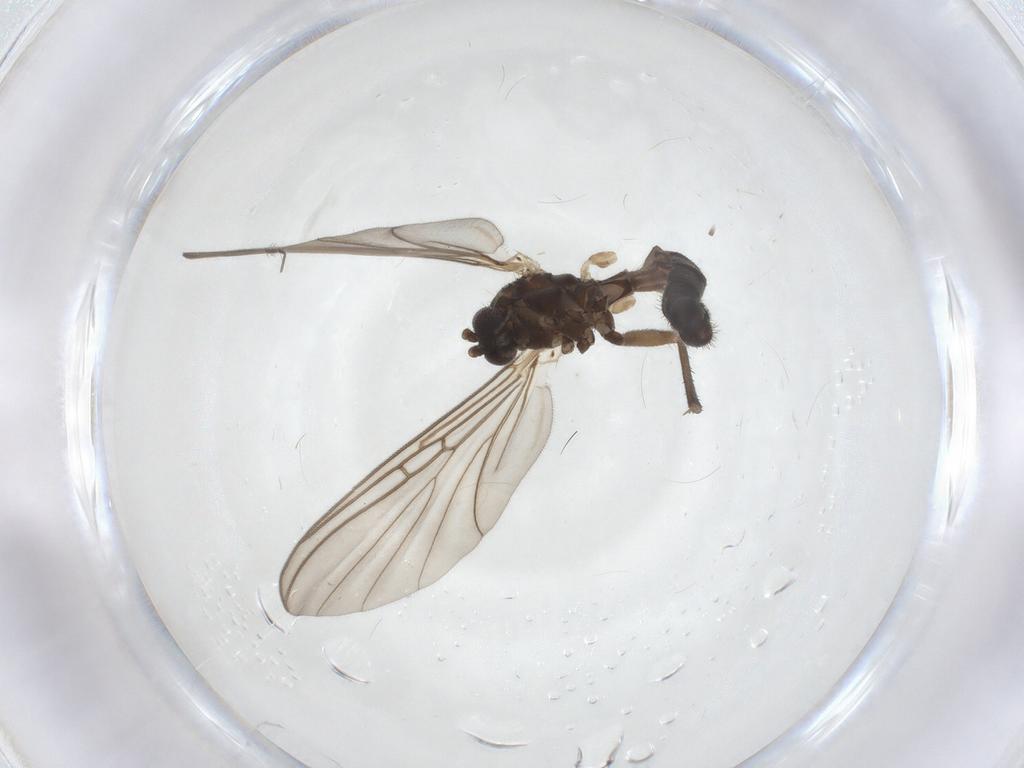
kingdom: Animalia
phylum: Arthropoda
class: Insecta
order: Diptera
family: Mycetophilidae
